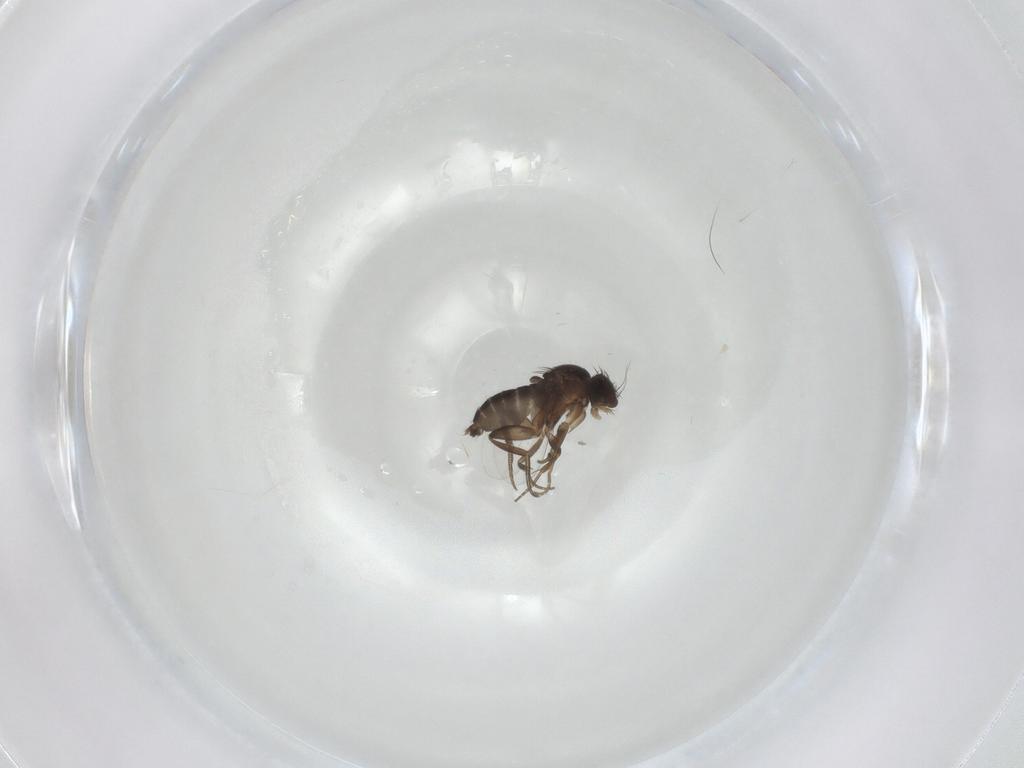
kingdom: Animalia
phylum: Arthropoda
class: Insecta
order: Diptera
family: Phoridae
